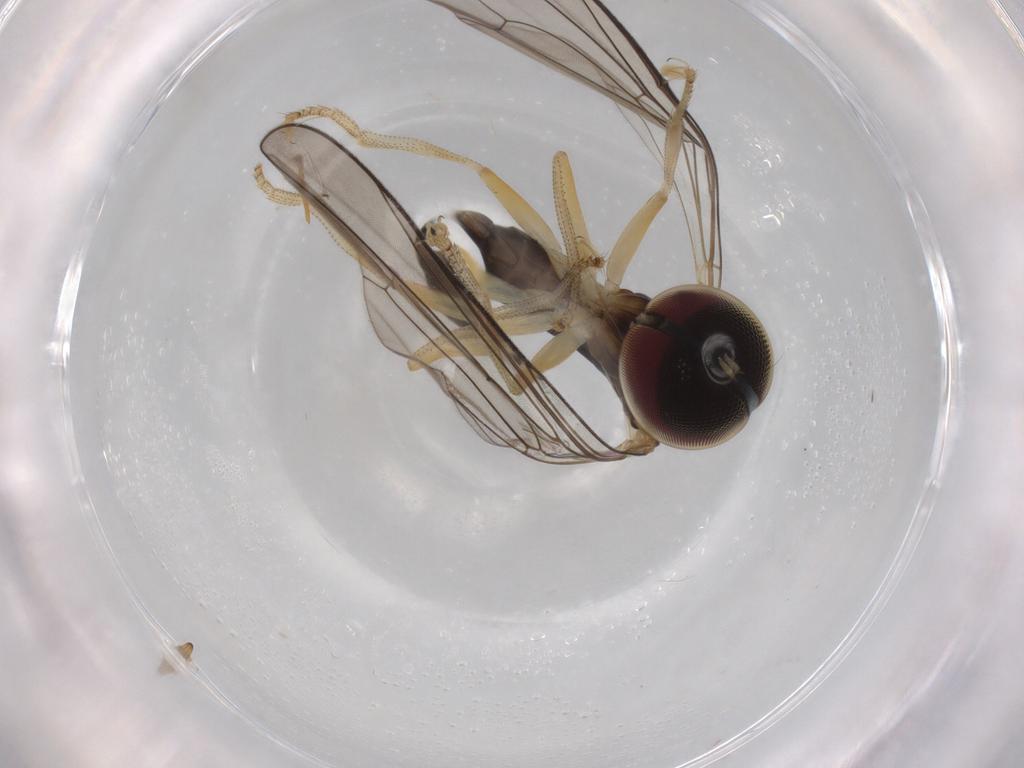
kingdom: Animalia
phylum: Arthropoda
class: Insecta
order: Diptera
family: Pipunculidae
